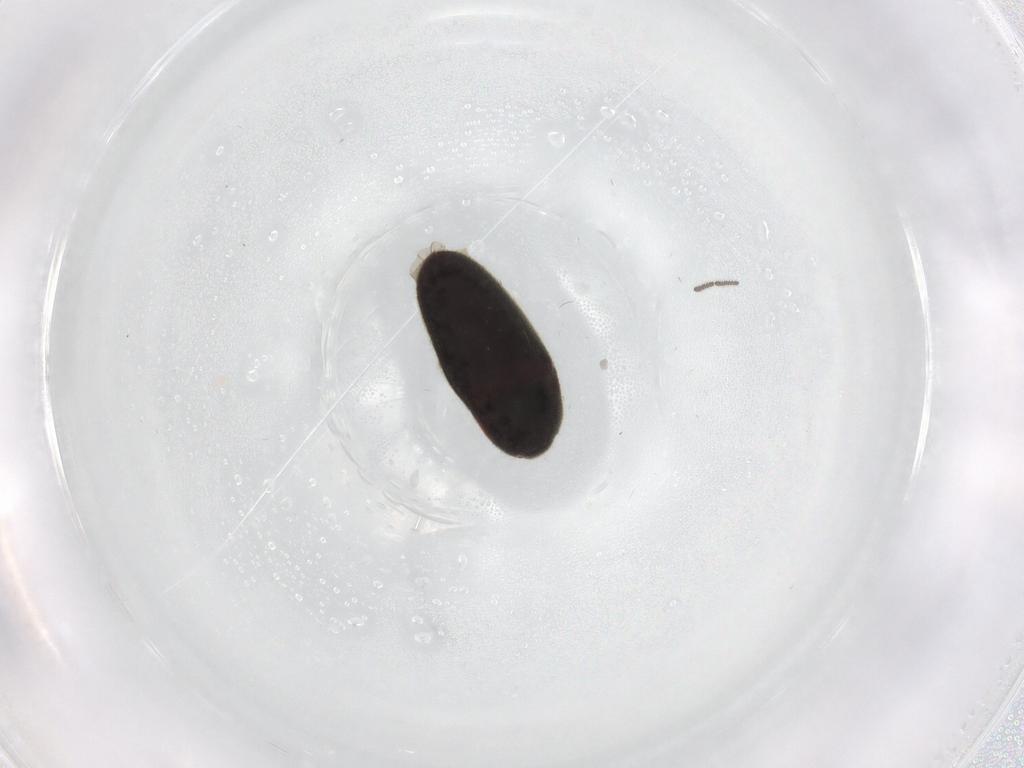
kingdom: Animalia
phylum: Arthropoda
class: Insecta
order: Coleoptera
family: Throscidae
